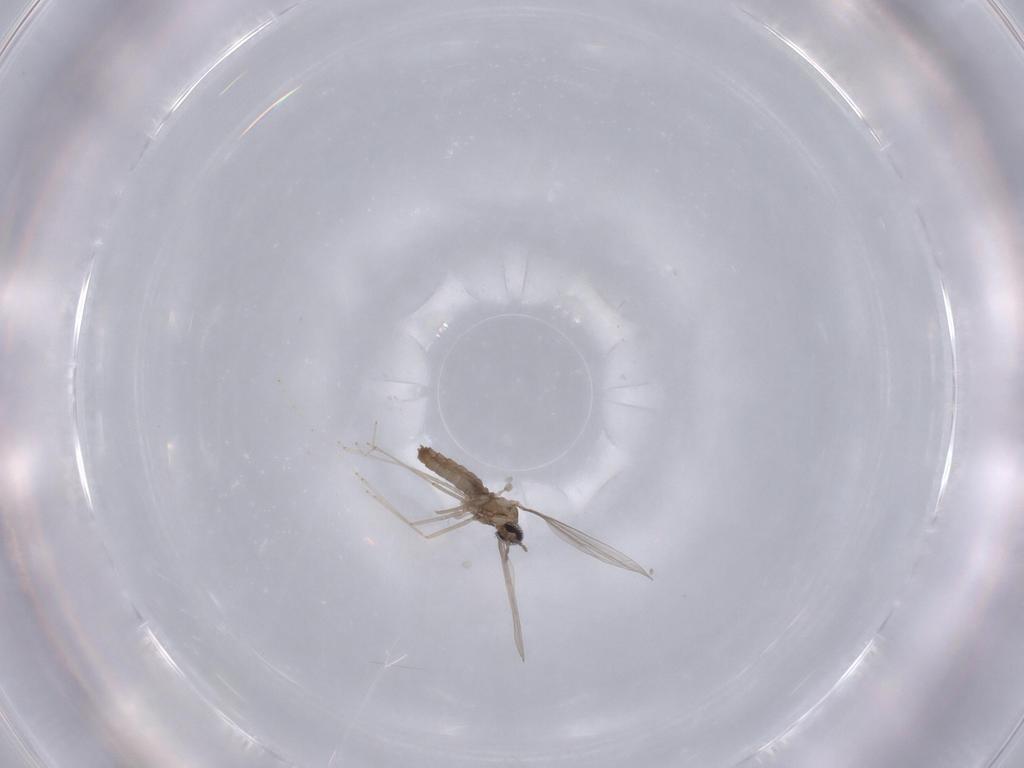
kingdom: Animalia
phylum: Arthropoda
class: Insecta
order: Diptera
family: Cecidomyiidae
